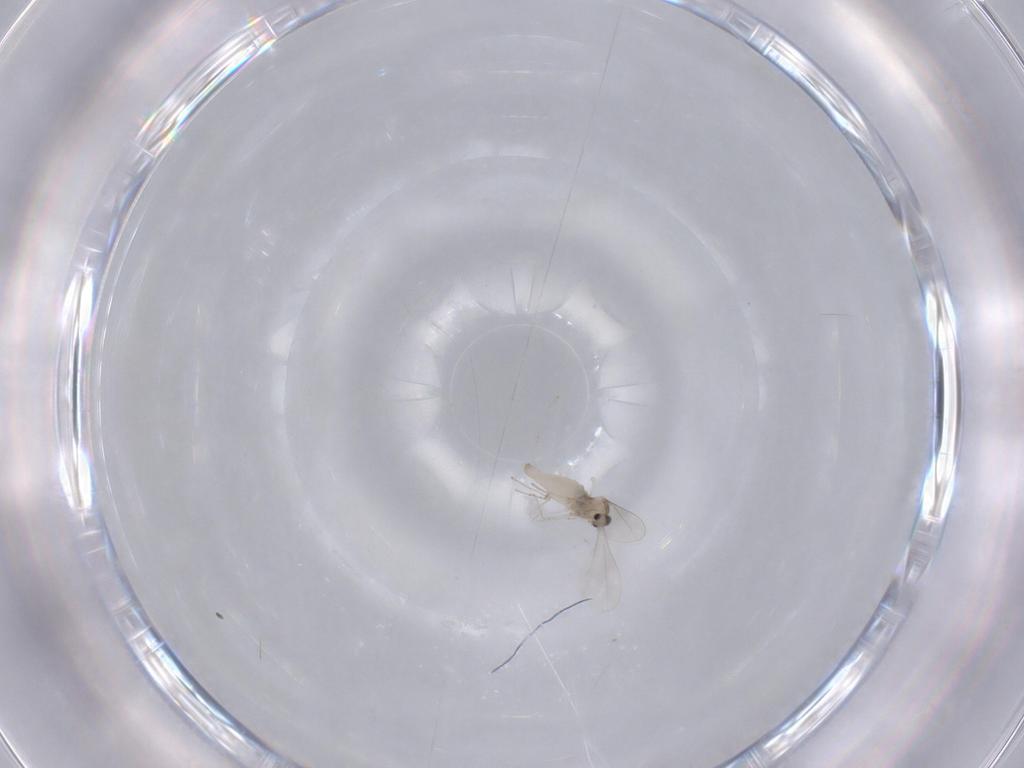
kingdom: Animalia
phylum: Arthropoda
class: Insecta
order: Diptera
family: Cecidomyiidae
